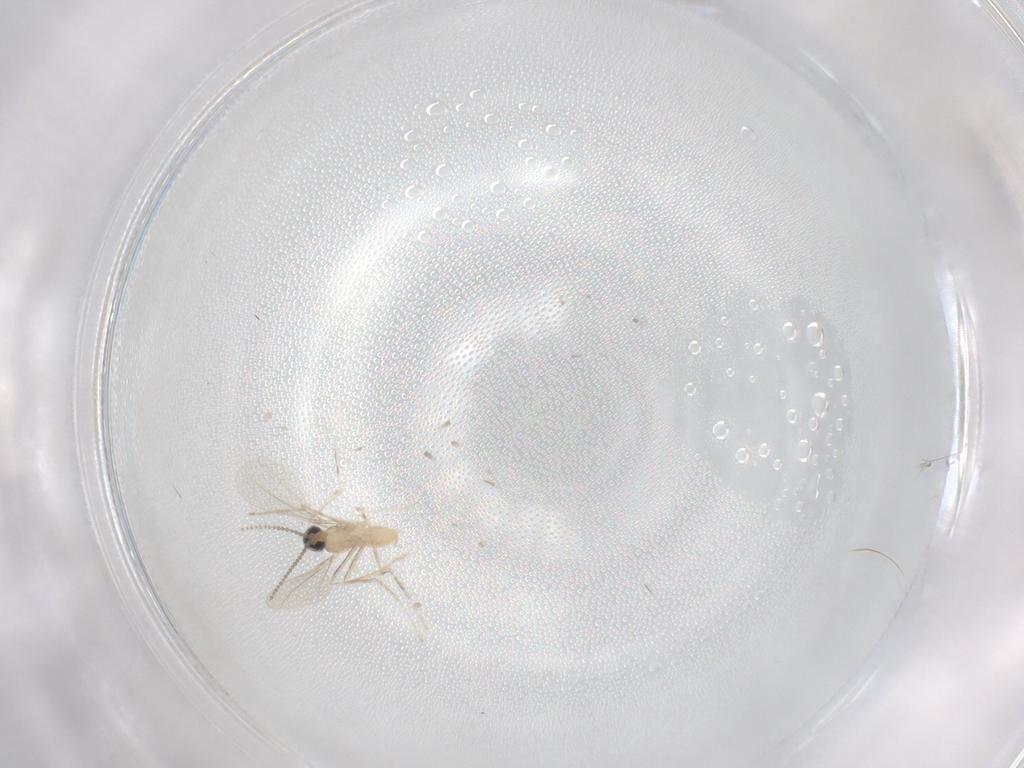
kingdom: Animalia
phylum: Arthropoda
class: Insecta
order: Diptera
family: Cecidomyiidae
